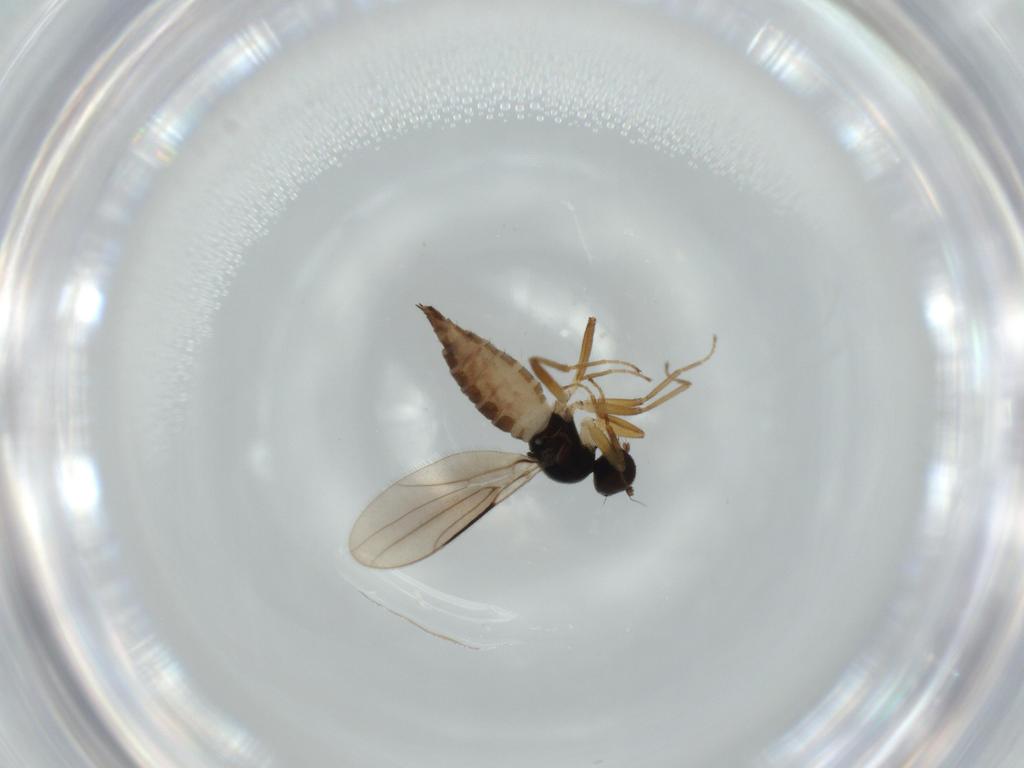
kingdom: Animalia
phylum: Arthropoda
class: Insecta
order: Diptera
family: Hybotidae
